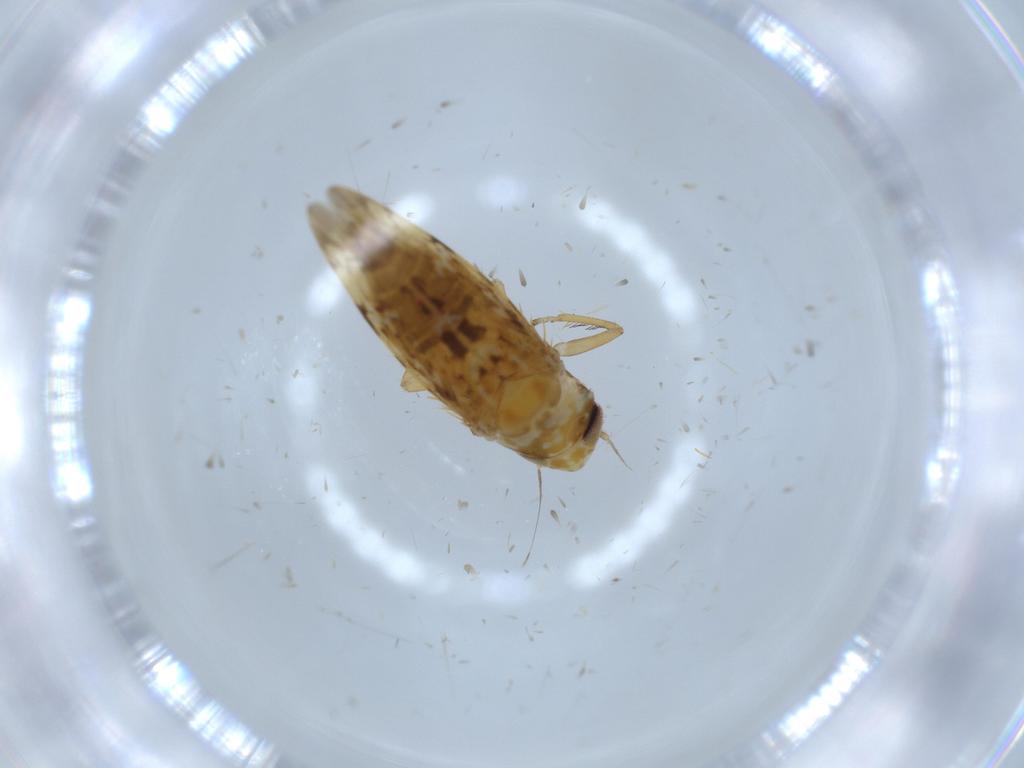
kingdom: Animalia
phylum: Arthropoda
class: Insecta
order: Hemiptera
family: Cicadellidae
